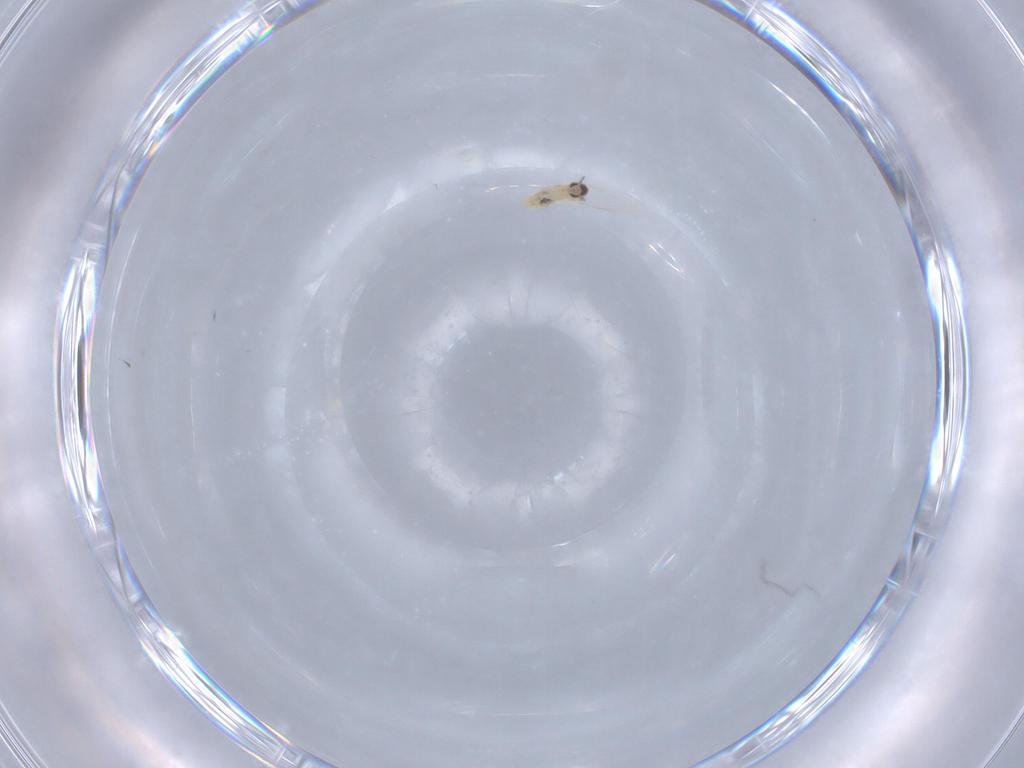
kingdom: Animalia
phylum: Arthropoda
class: Insecta
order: Diptera
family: Cecidomyiidae
